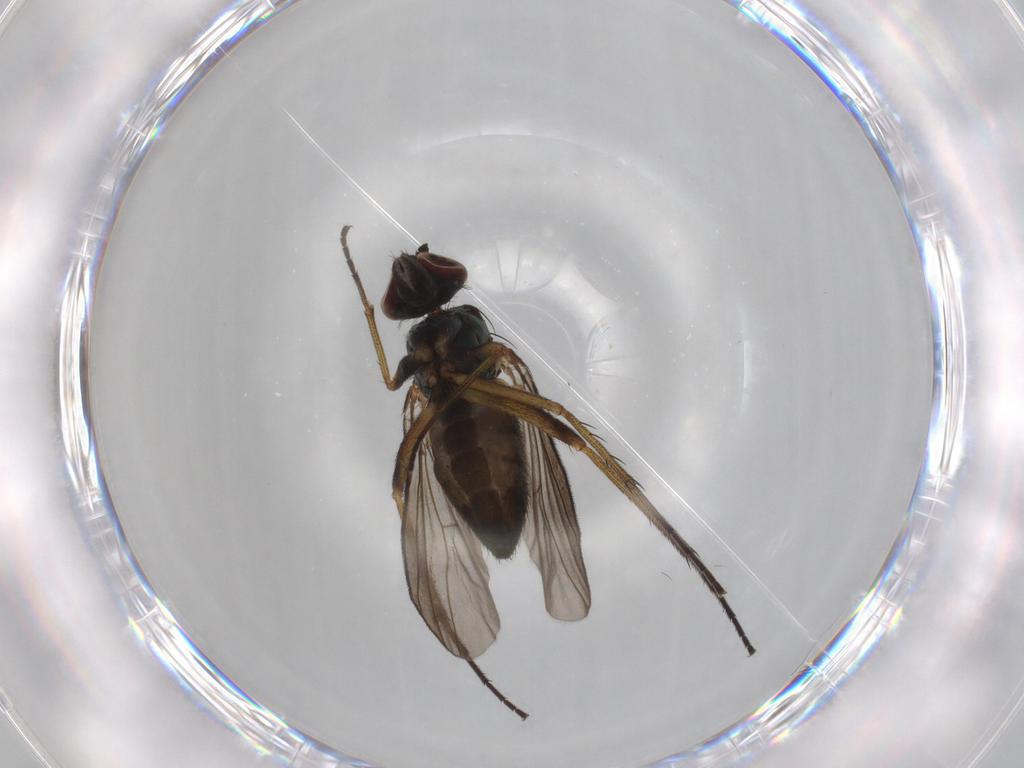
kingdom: Animalia
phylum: Arthropoda
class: Insecta
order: Diptera
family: Dolichopodidae
